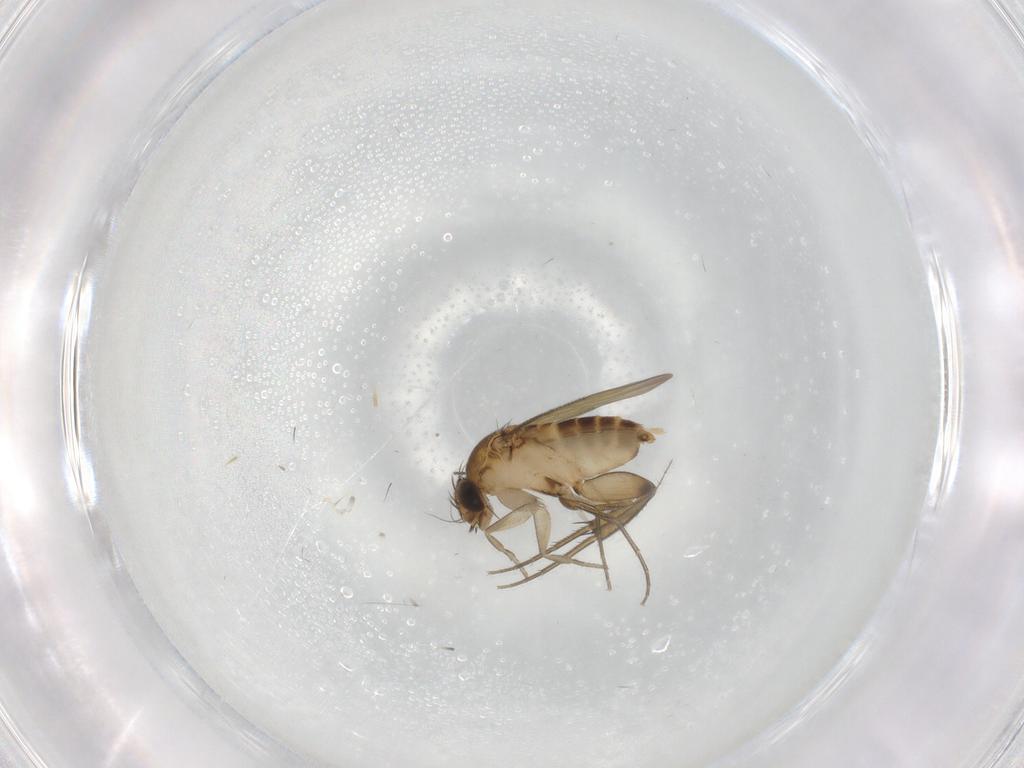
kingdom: Animalia
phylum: Arthropoda
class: Insecta
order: Diptera
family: Phoridae
